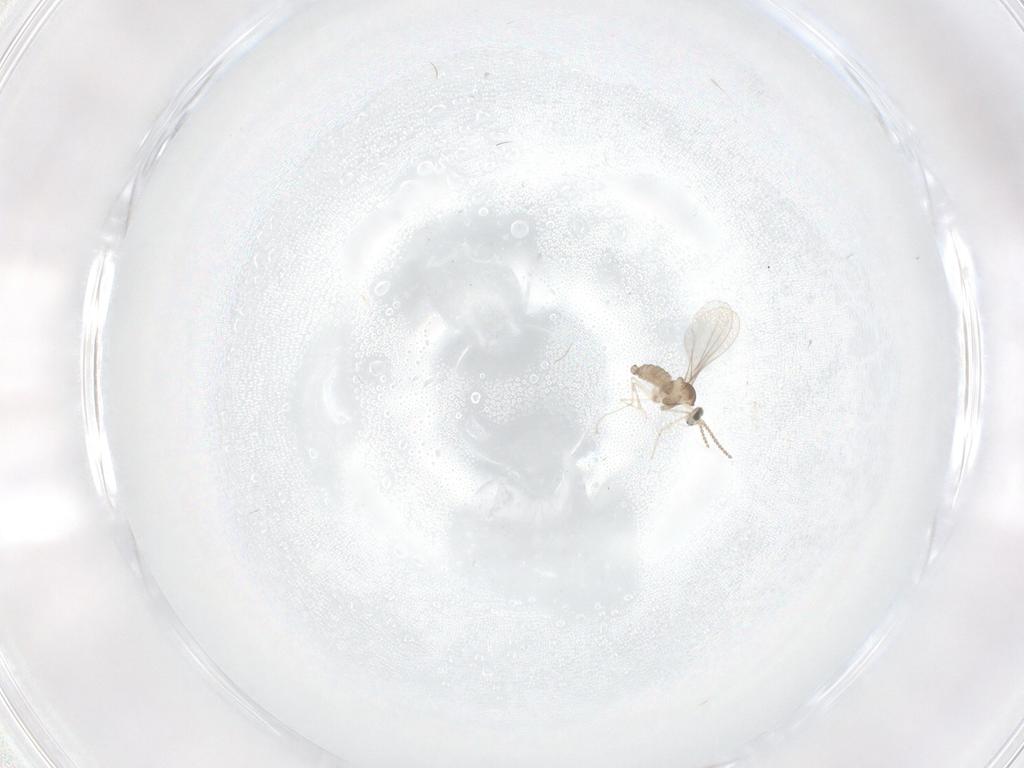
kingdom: Animalia
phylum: Arthropoda
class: Insecta
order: Diptera
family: Cecidomyiidae
